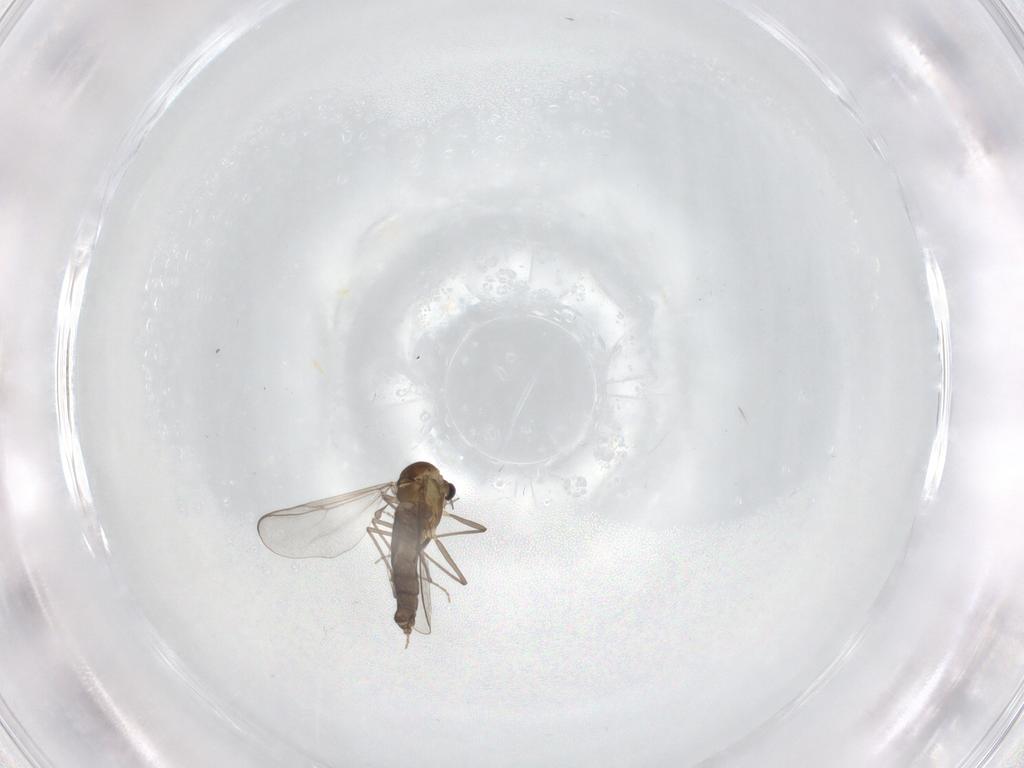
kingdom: Animalia
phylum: Arthropoda
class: Insecta
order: Diptera
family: Chironomidae
